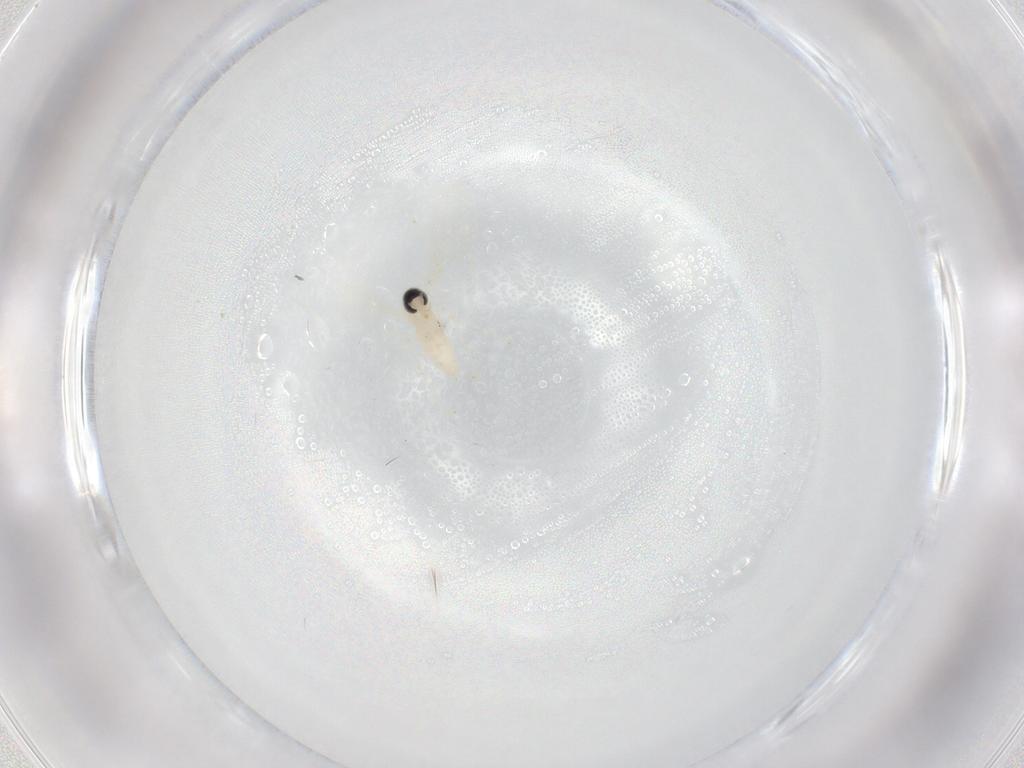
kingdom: Animalia
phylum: Arthropoda
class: Insecta
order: Diptera
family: Cecidomyiidae
